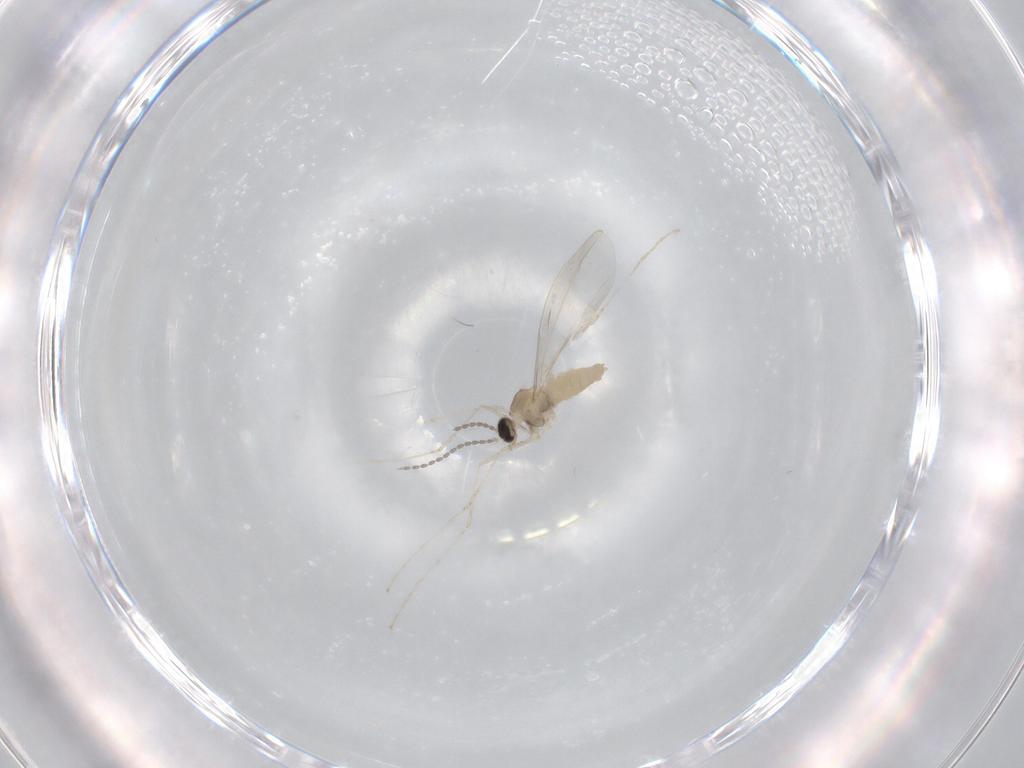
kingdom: Animalia
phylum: Arthropoda
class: Insecta
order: Diptera
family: Cecidomyiidae
